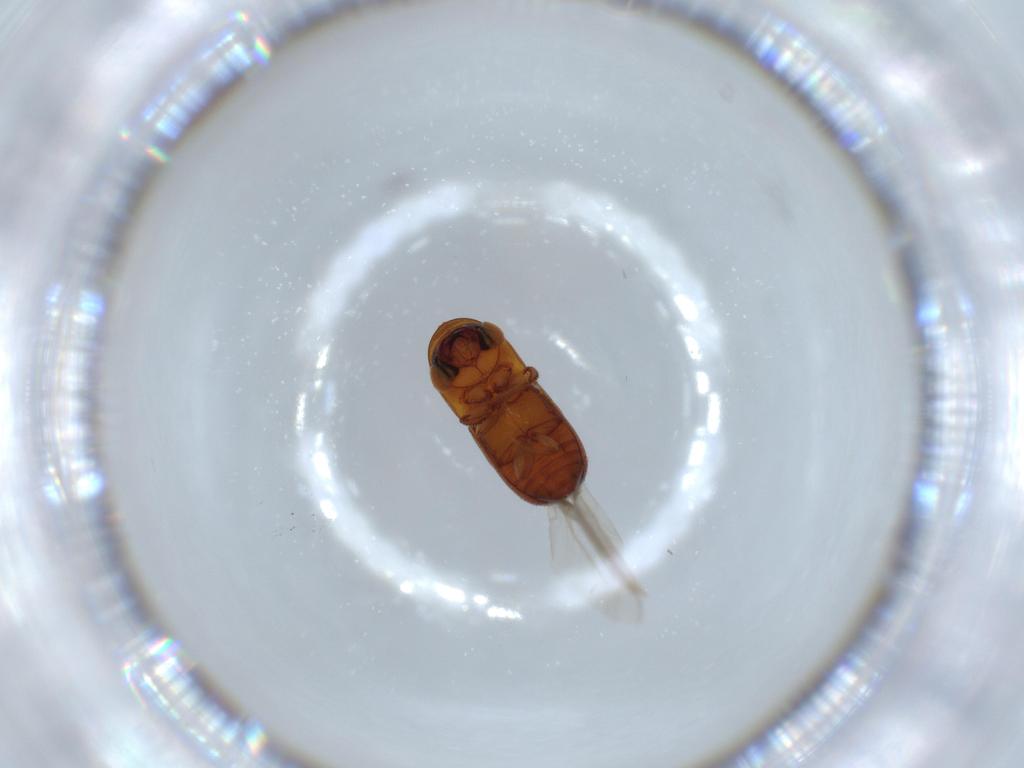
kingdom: Animalia
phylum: Arthropoda
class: Insecta
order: Coleoptera
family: Curculionidae
